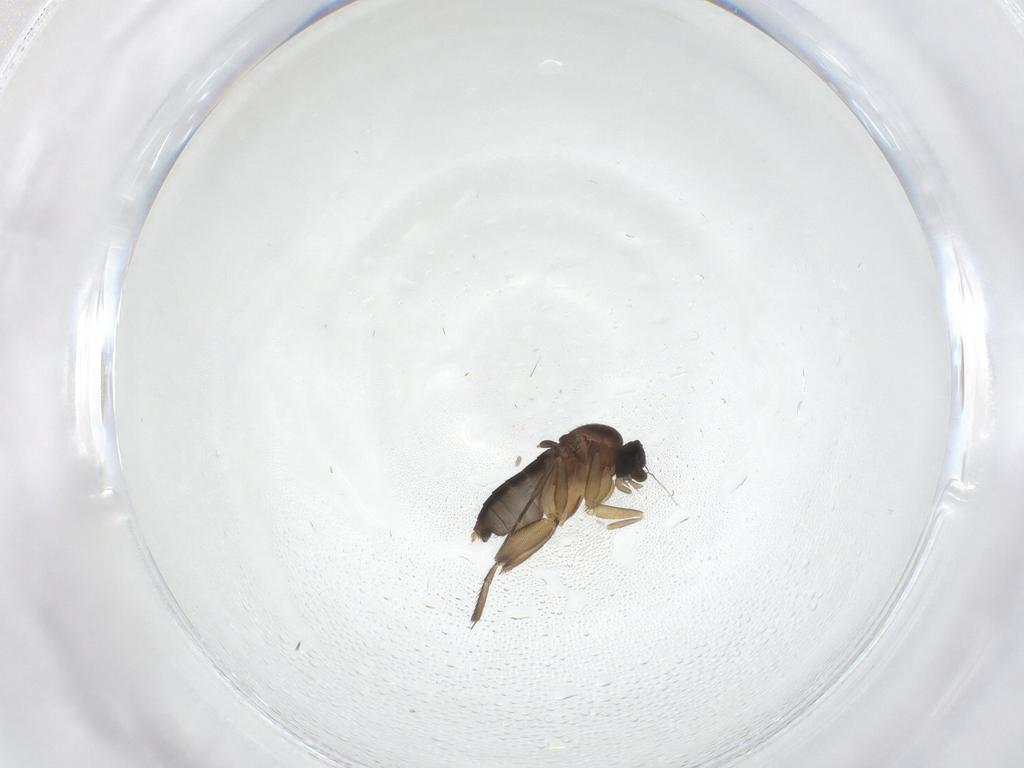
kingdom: Animalia
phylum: Arthropoda
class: Insecta
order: Diptera
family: Phoridae
